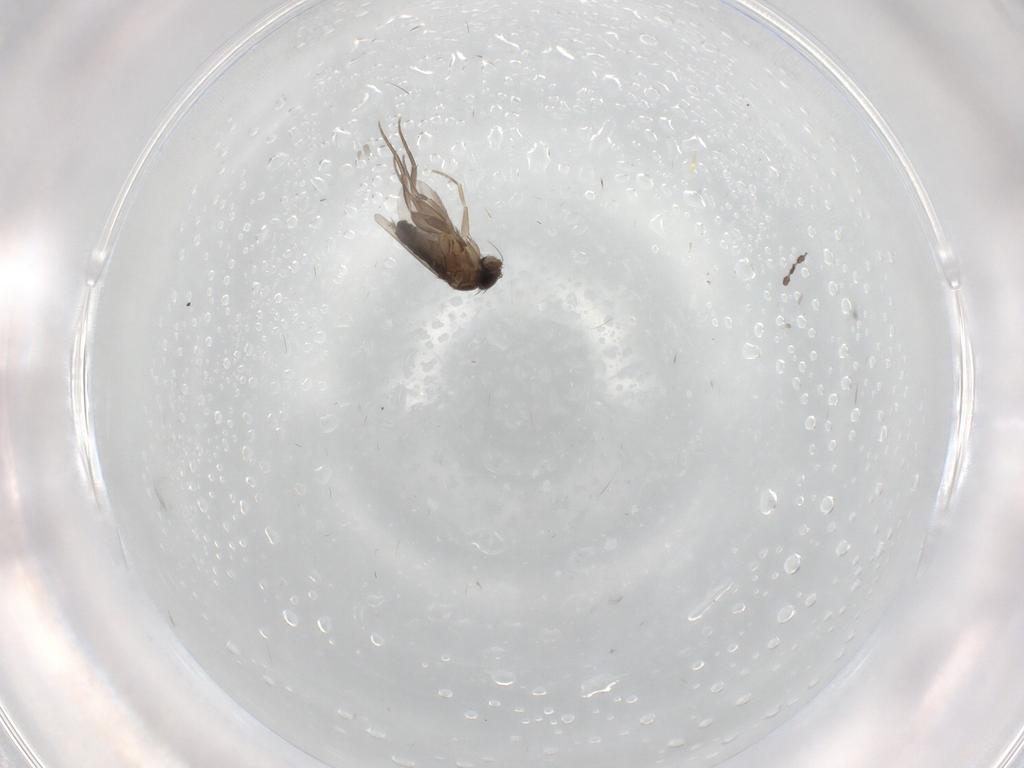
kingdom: Animalia
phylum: Arthropoda
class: Insecta
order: Diptera
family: Phoridae
